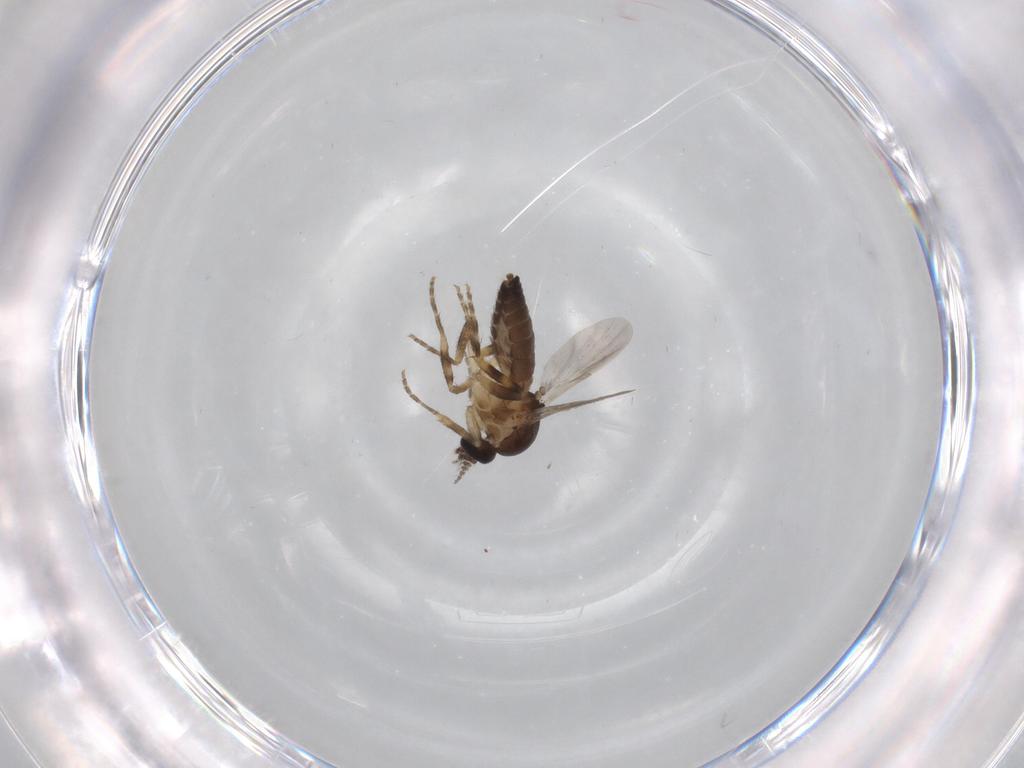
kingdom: Animalia
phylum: Arthropoda
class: Insecta
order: Diptera
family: Ceratopogonidae
